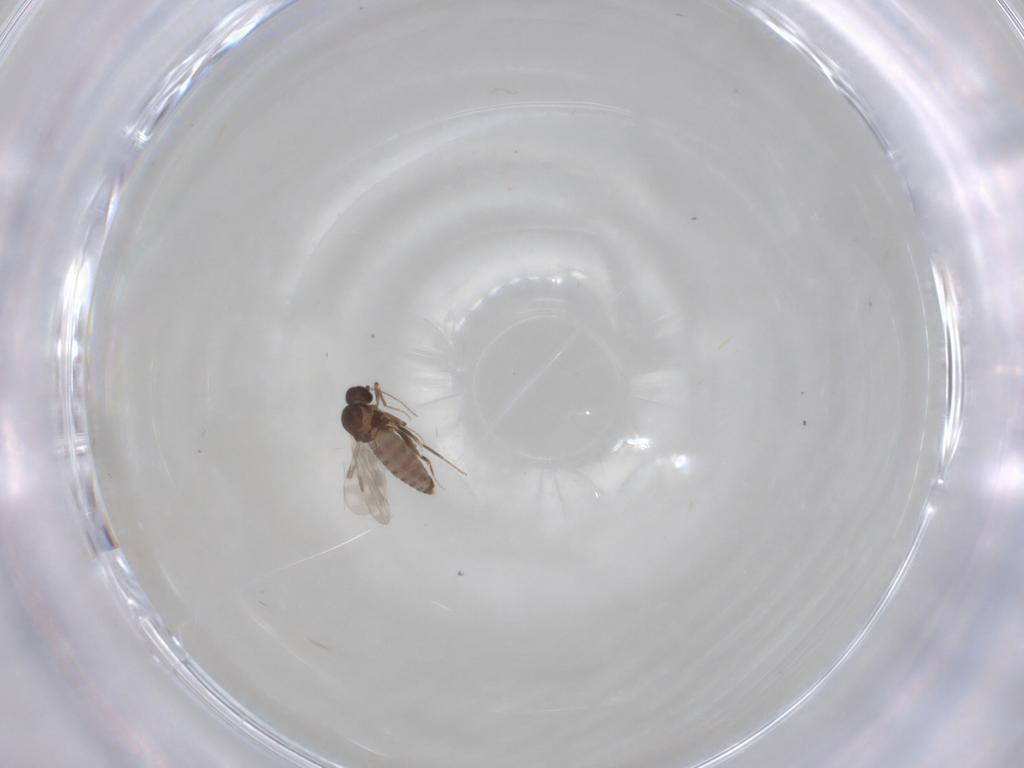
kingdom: Animalia
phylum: Arthropoda
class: Insecta
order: Diptera
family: Cecidomyiidae
